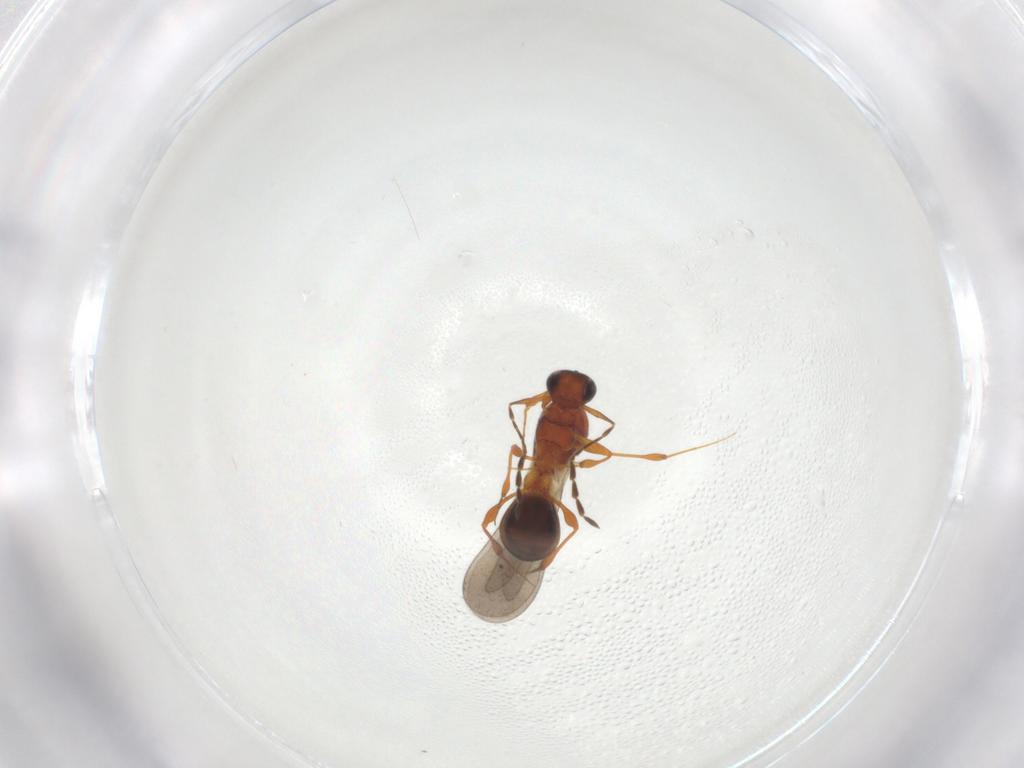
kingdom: Animalia
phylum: Arthropoda
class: Insecta
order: Hymenoptera
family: Platygastridae
